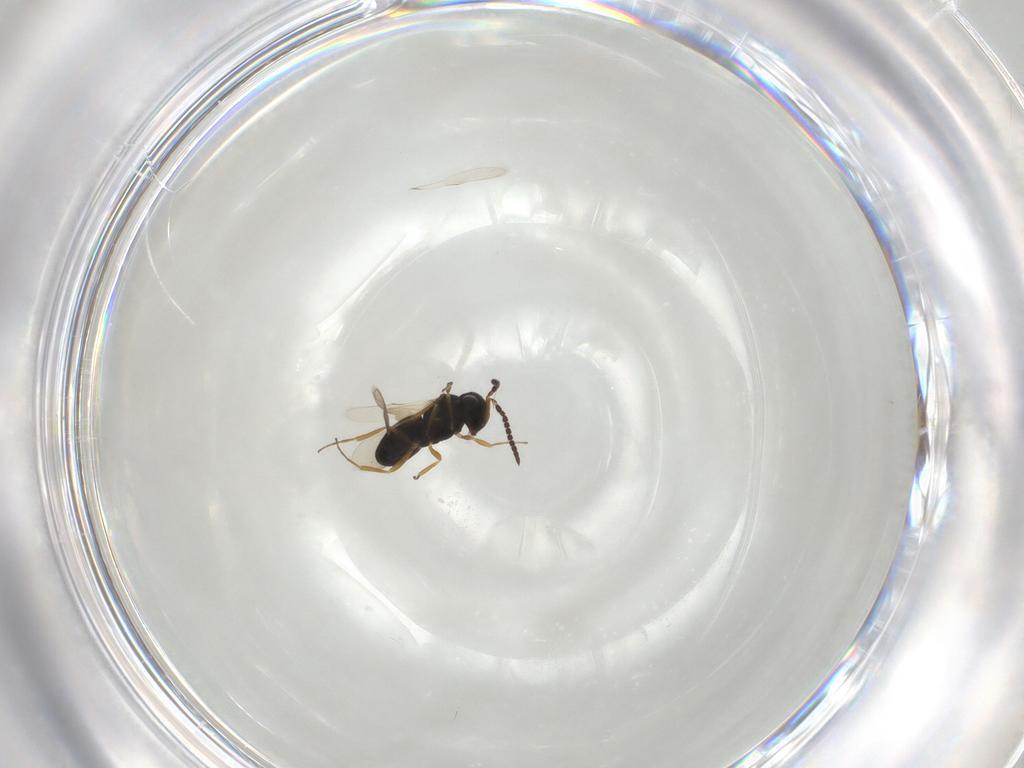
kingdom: Animalia
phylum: Arthropoda
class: Insecta
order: Hymenoptera
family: Scelionidae
